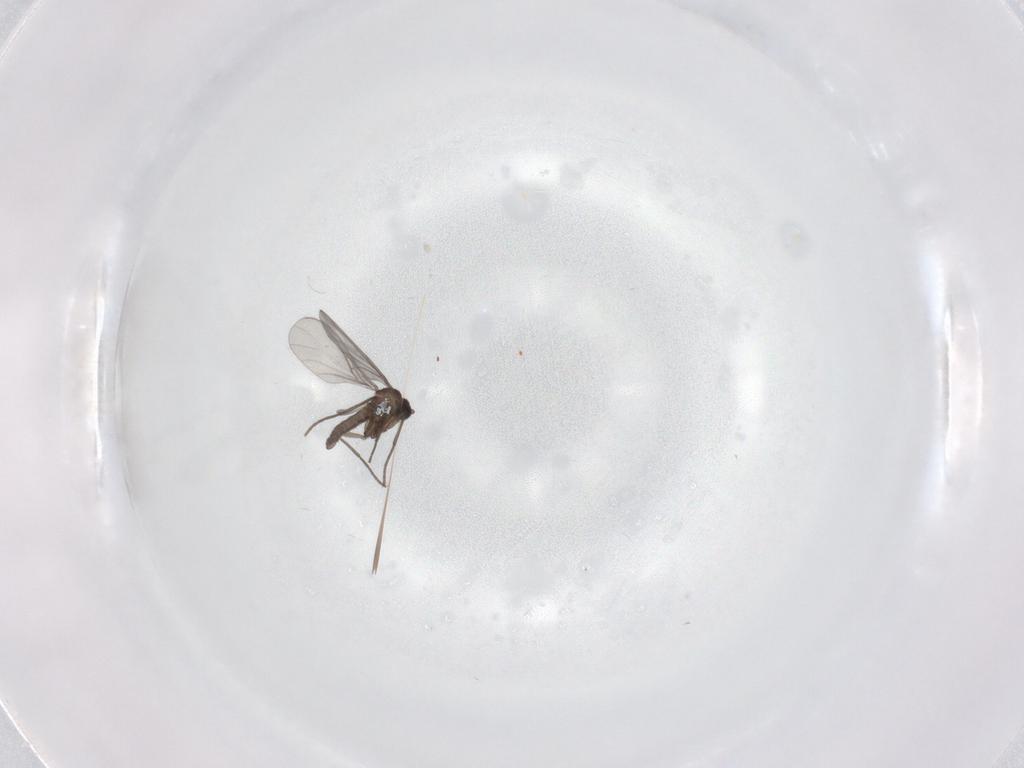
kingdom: Animalia
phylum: Arthropoda
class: Insecta
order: Diptera
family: Sciaridae
